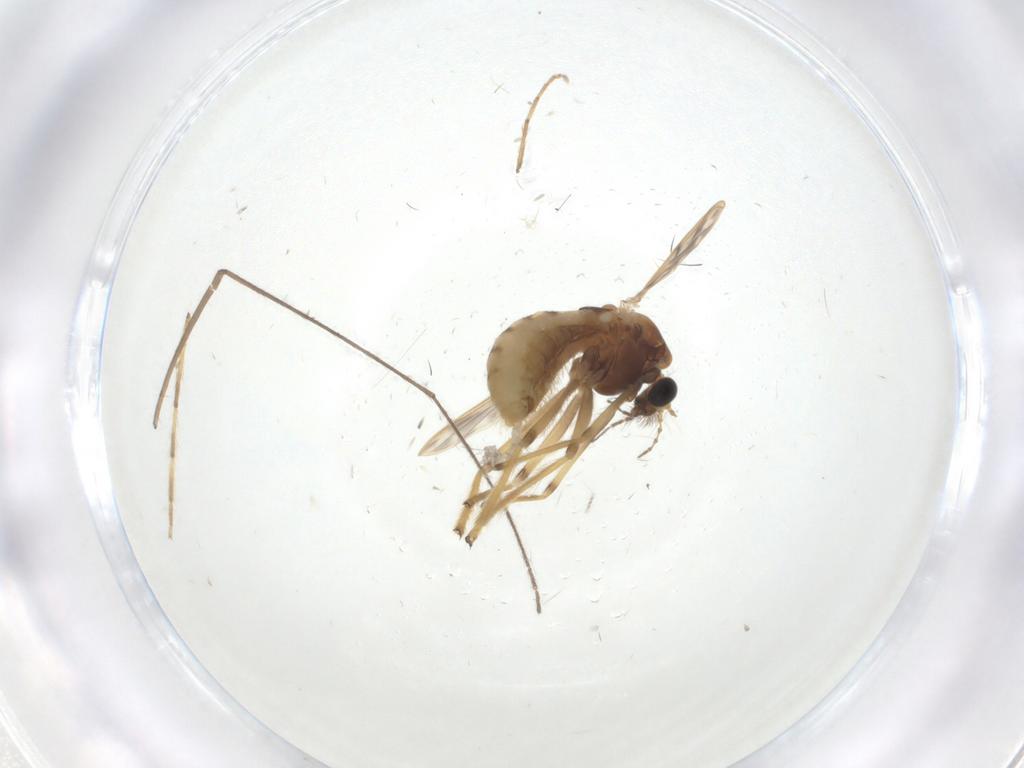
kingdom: Animalia
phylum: Arthropoda
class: Insecta
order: Diptera
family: Chironomidae
